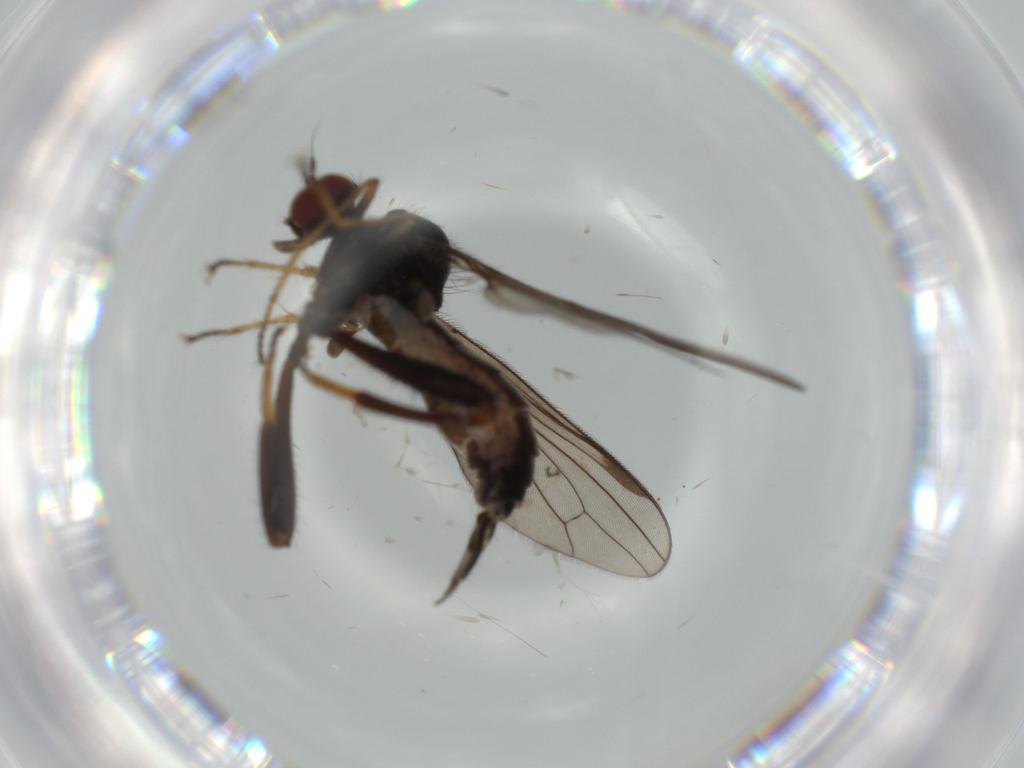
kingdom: Animalia
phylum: Arthropoda
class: Insecta
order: Diptera
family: Hybotidae
